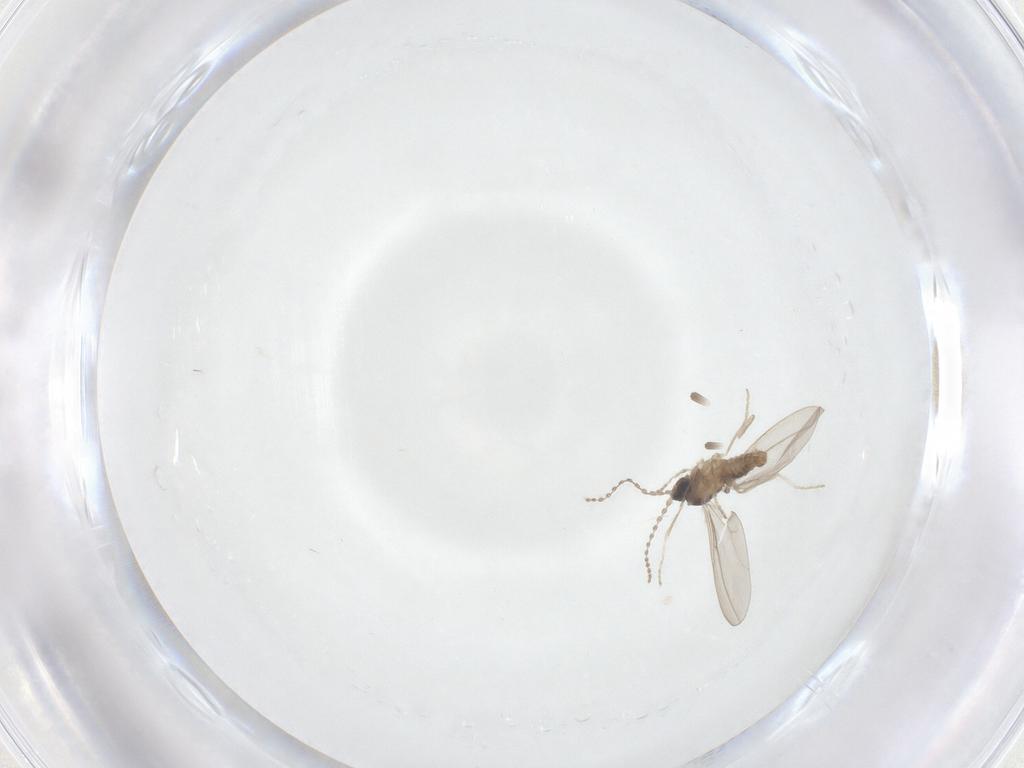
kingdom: Animalia
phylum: Arthropoda
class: Insecta
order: Diptera
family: Cecidomyiidae
